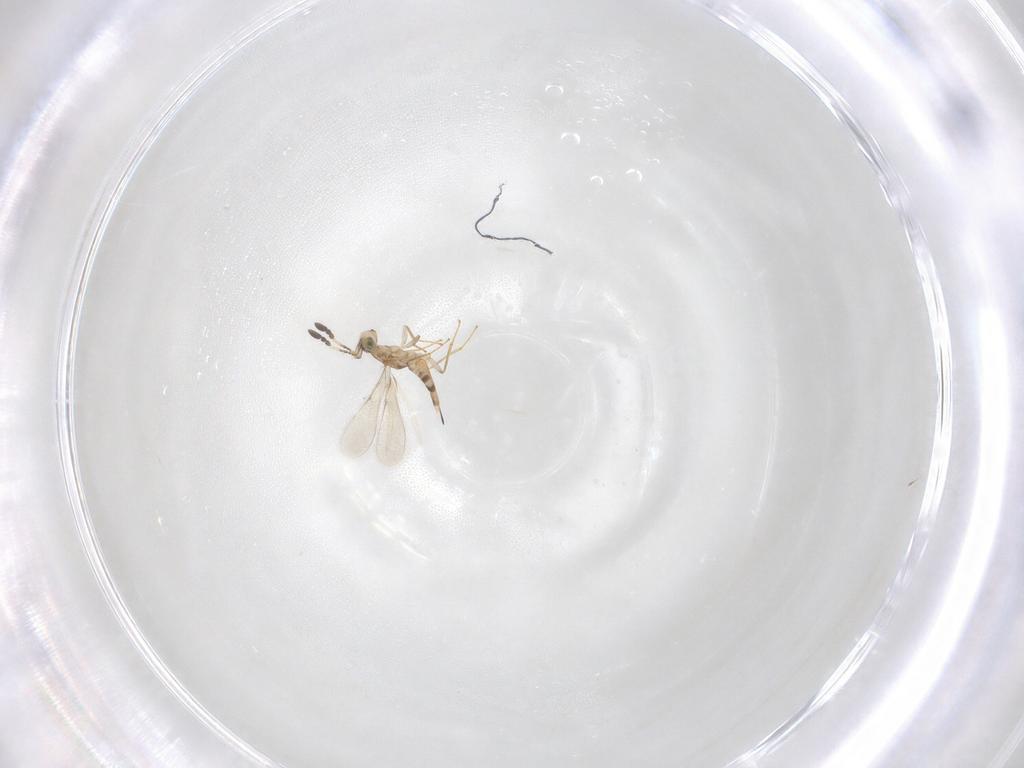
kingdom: Animalia
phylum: Arthropoda
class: Insecta
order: Hymenoptera
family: Mymaridae
